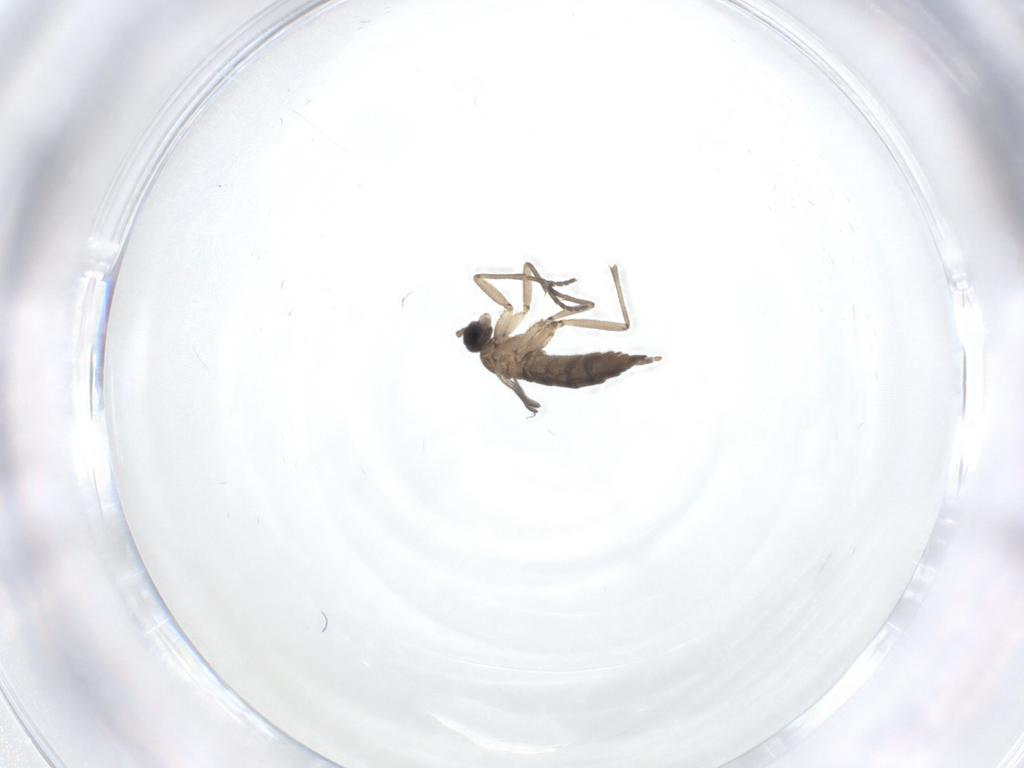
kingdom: Animalia
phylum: Arthropoda
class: Insecta
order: Diptera
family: Sciaridae
